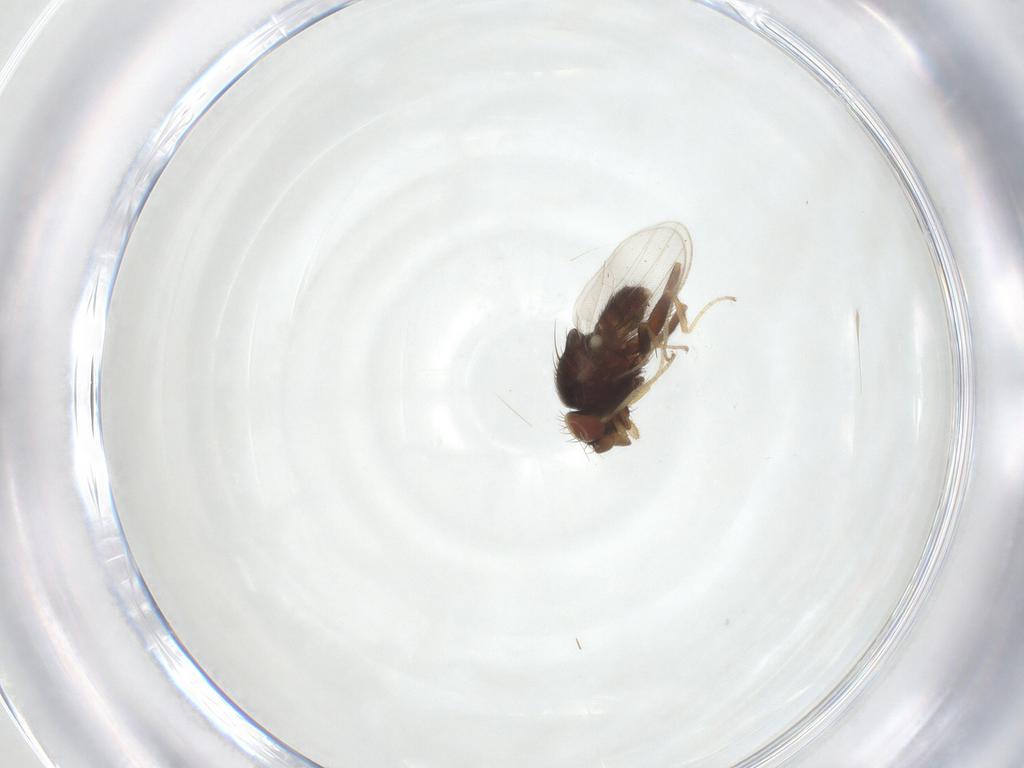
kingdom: Animalia
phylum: Arthropoda
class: Insecta
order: Diptera
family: Milichiidae
